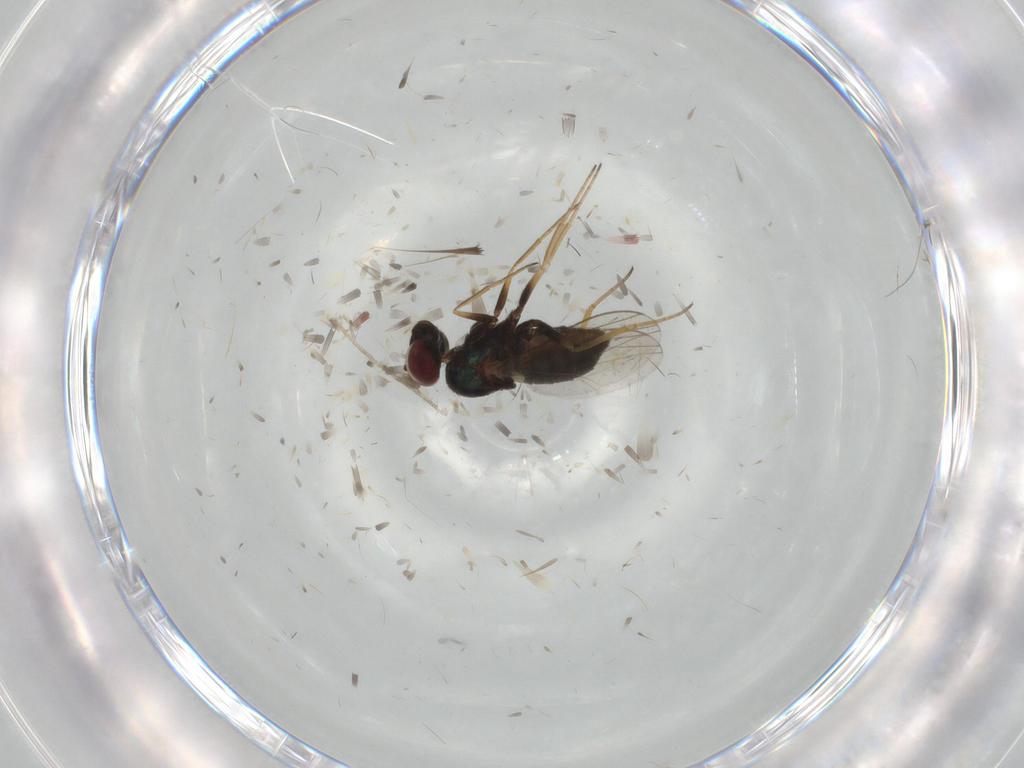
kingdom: Animalia
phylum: Arthropoda
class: Insecta
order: Diptera
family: Dolichopodidae
